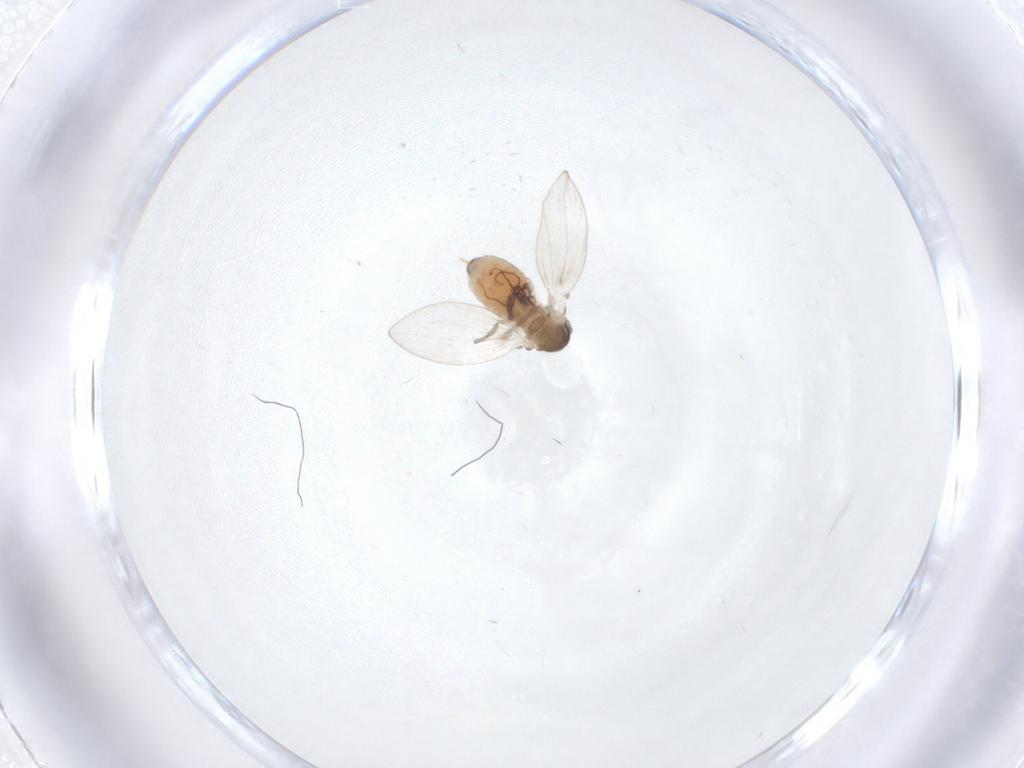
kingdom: Animalia
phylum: Arthropoda
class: Insecta
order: Diptera
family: Psychodidae
